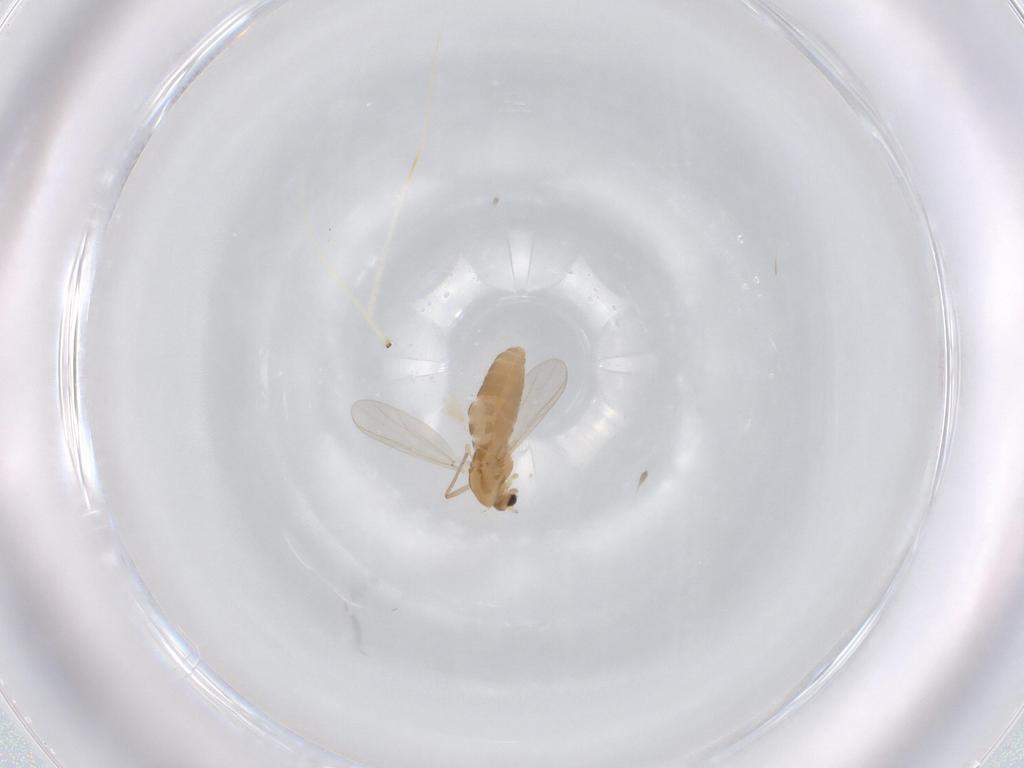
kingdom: Animalia
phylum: Arthropoda
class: Insecta
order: Diptera
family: Chironomidae
